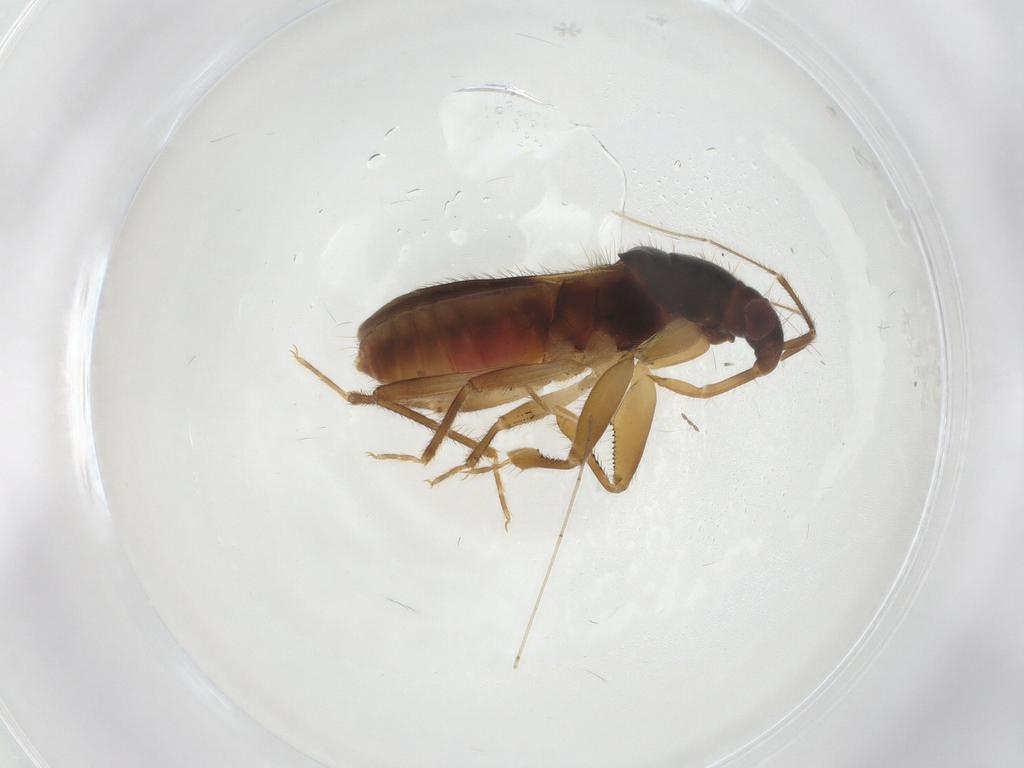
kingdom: Animalia
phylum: Arthropoda
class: Insecta
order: Hemiptera
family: Nabidae
